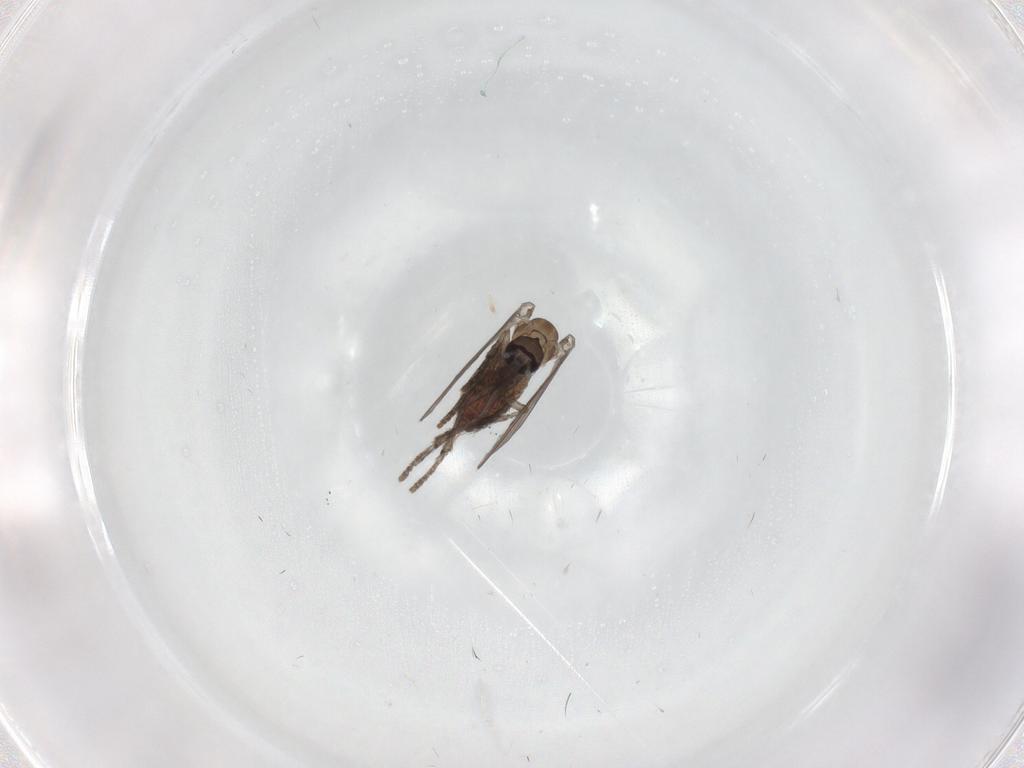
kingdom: Animalia
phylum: Arthropoda
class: Insecta
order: Diptera
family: Psychodidae
